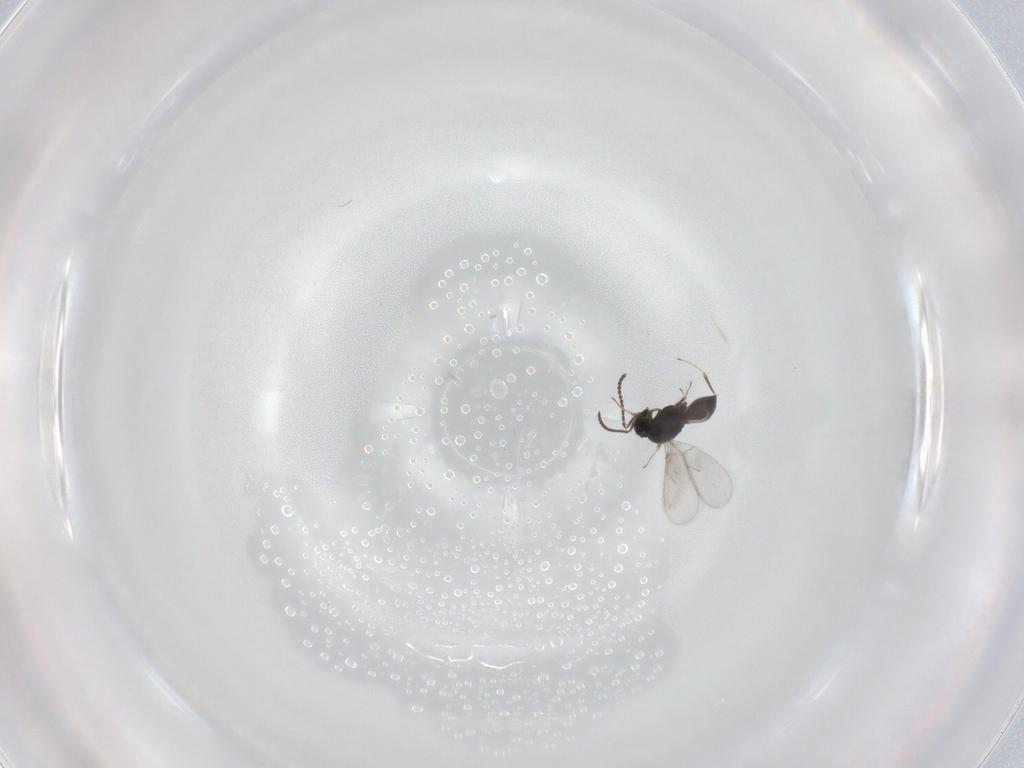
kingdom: Animalia
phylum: Arthropoda
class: Insecta
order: Hymenoptera
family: Scelionidae
